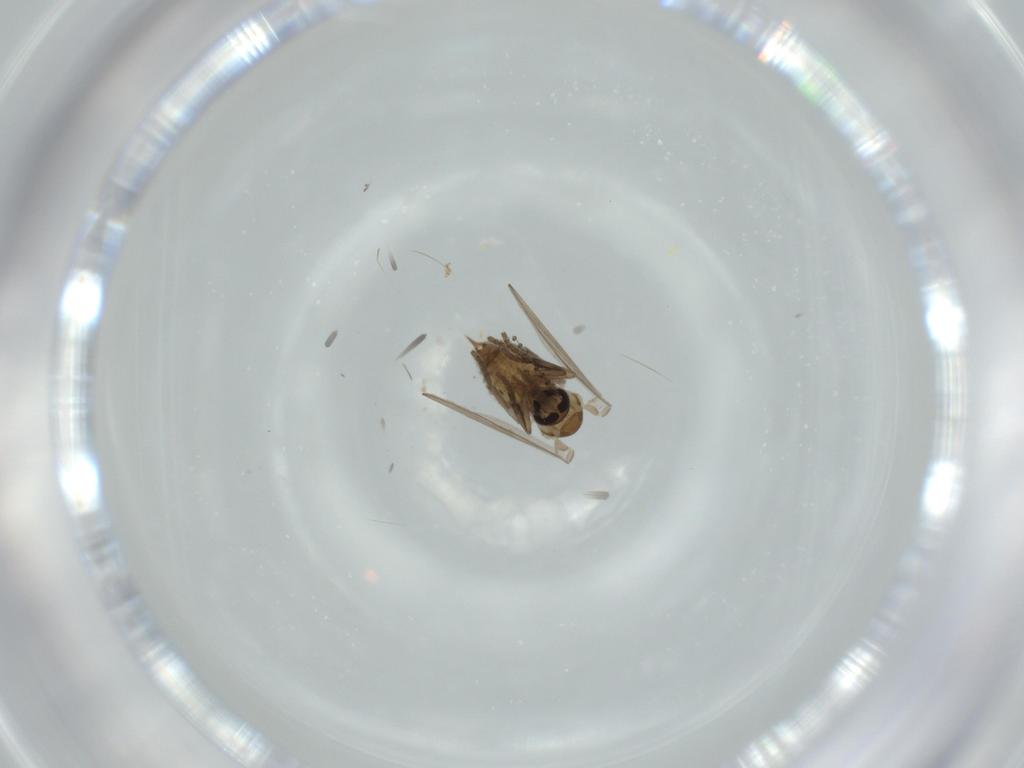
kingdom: Animalia
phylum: Arthropoda
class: Insecta
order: Diptera
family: Psychodidae
